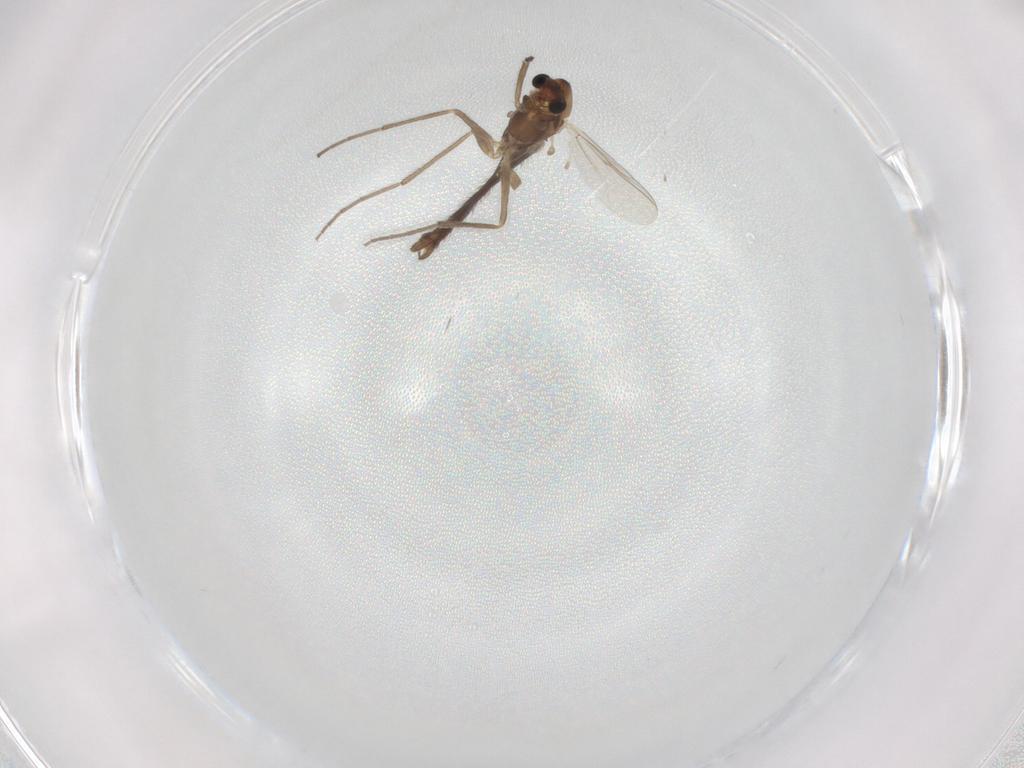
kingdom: Animalia
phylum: Arthropoda
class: Insecta
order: Diptera
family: Chironomidae
